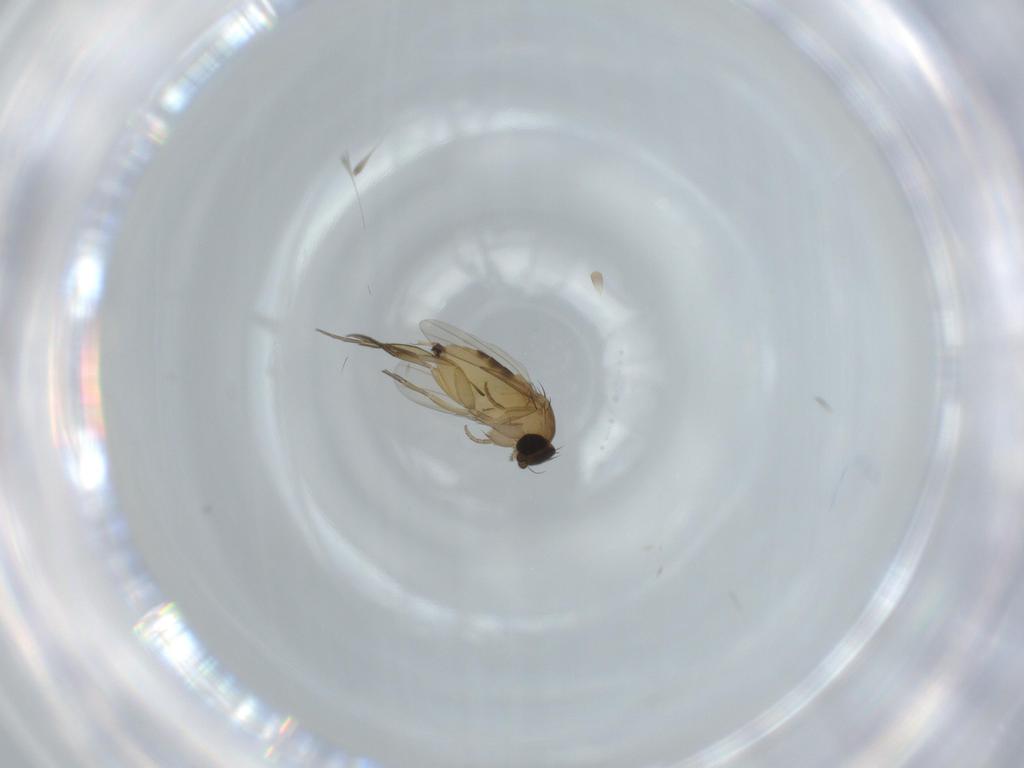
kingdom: Animalia
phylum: Arthropoda
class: Insecta
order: Diptera
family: Phoridae
